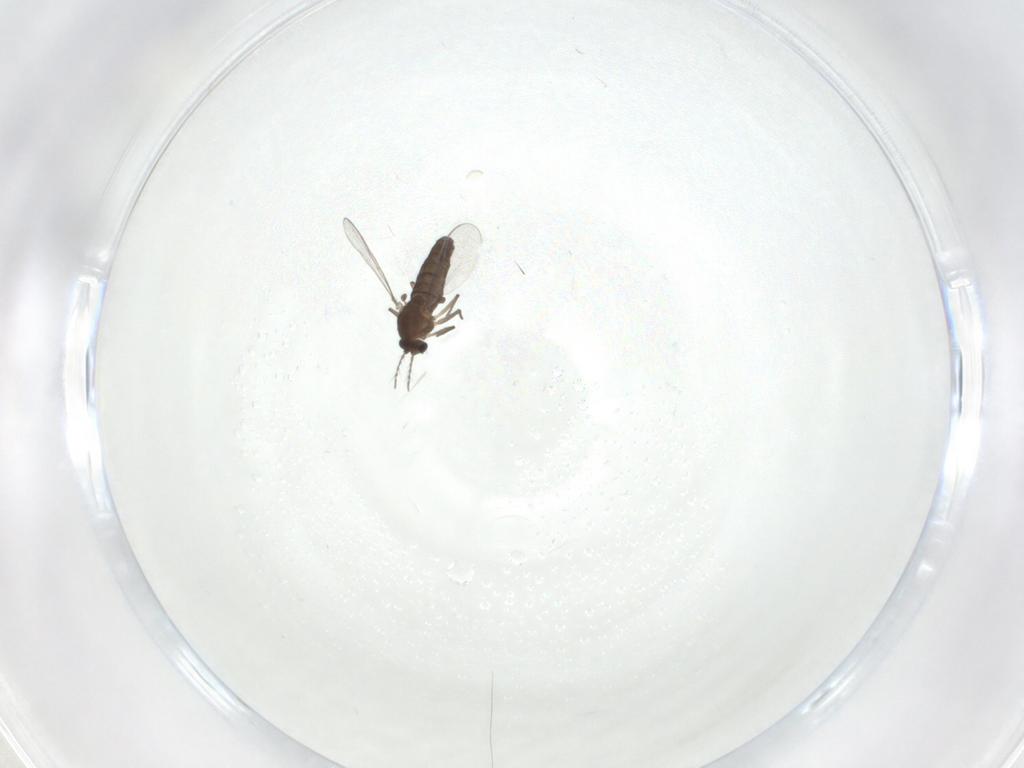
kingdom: Animalia
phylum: Arthropoda
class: Insecta
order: Diptera
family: Chironomidae
